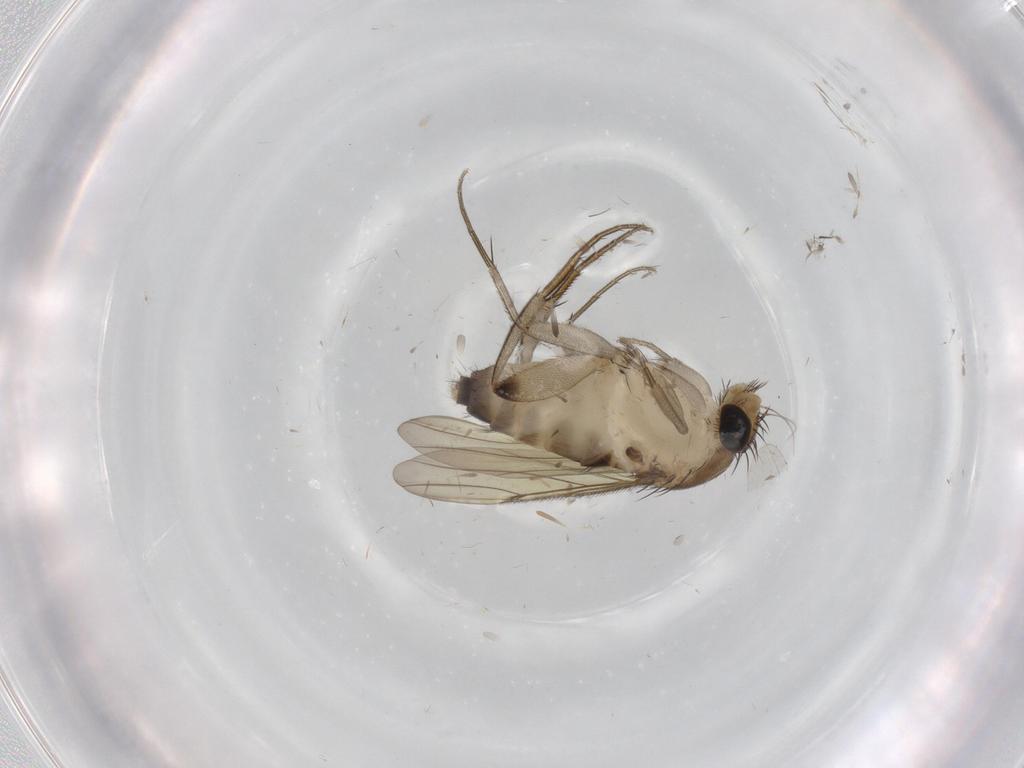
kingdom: Animalia
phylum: Arthropoda
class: Insecta
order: Diptera
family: Phoridae
